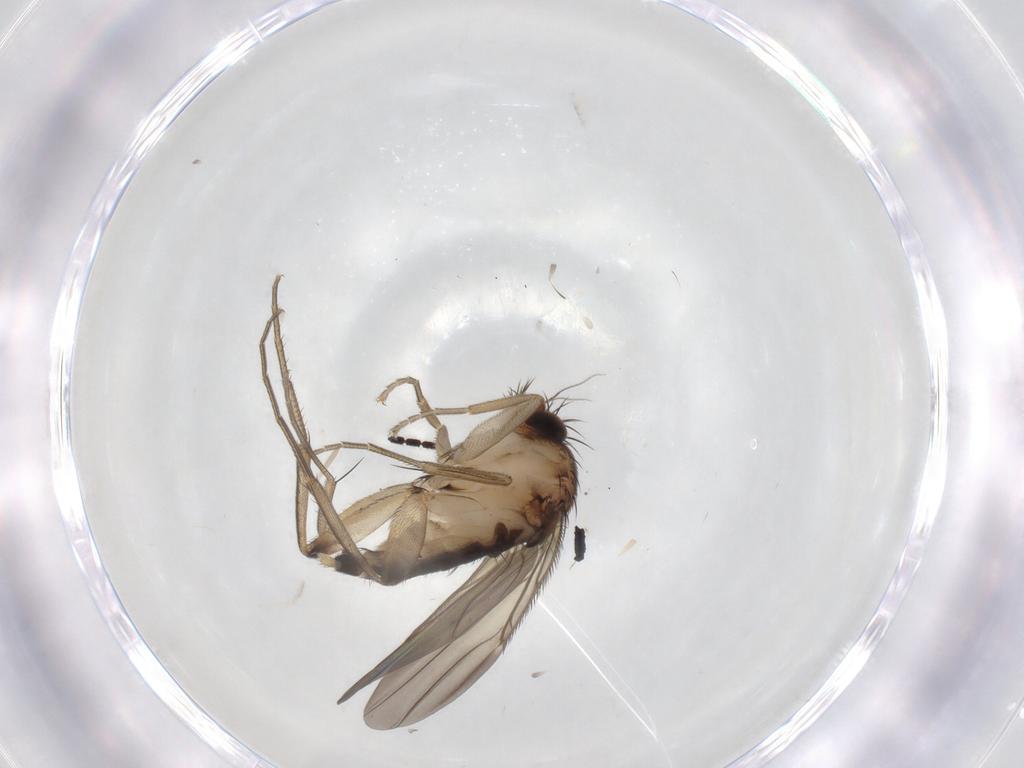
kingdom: Animalia
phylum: Arthropoda
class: Insecta
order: Diptera
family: Phoridae
